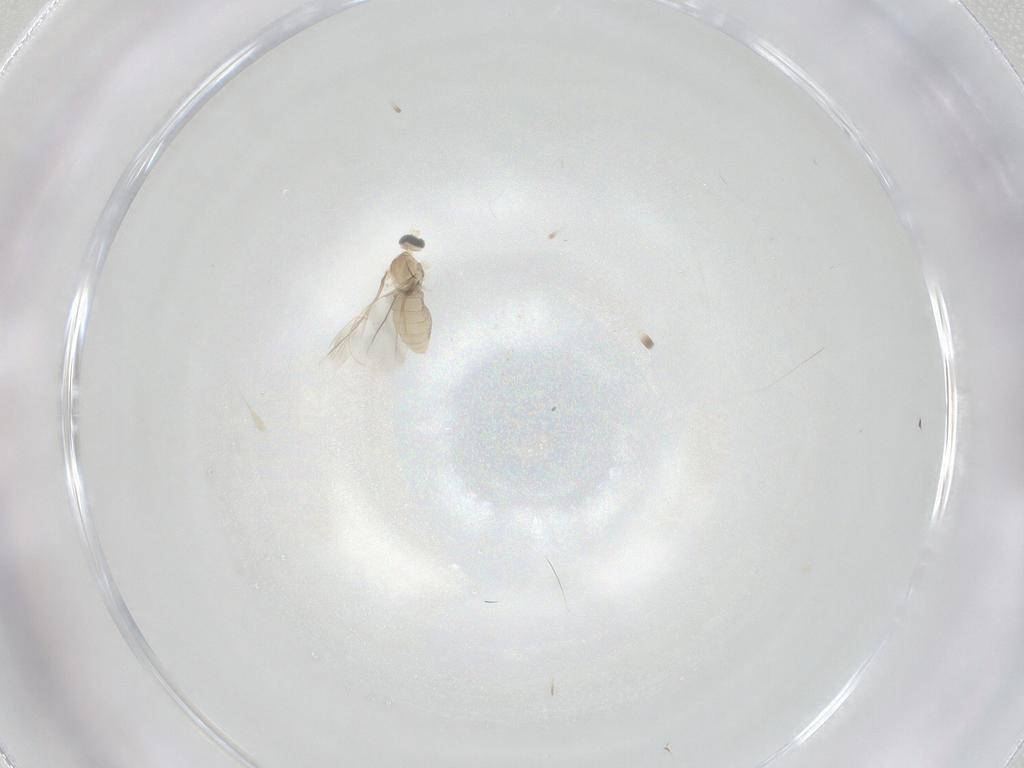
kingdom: Animalia
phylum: Arthropoda
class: Insecta
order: Diptera
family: Cecidomyiidae
